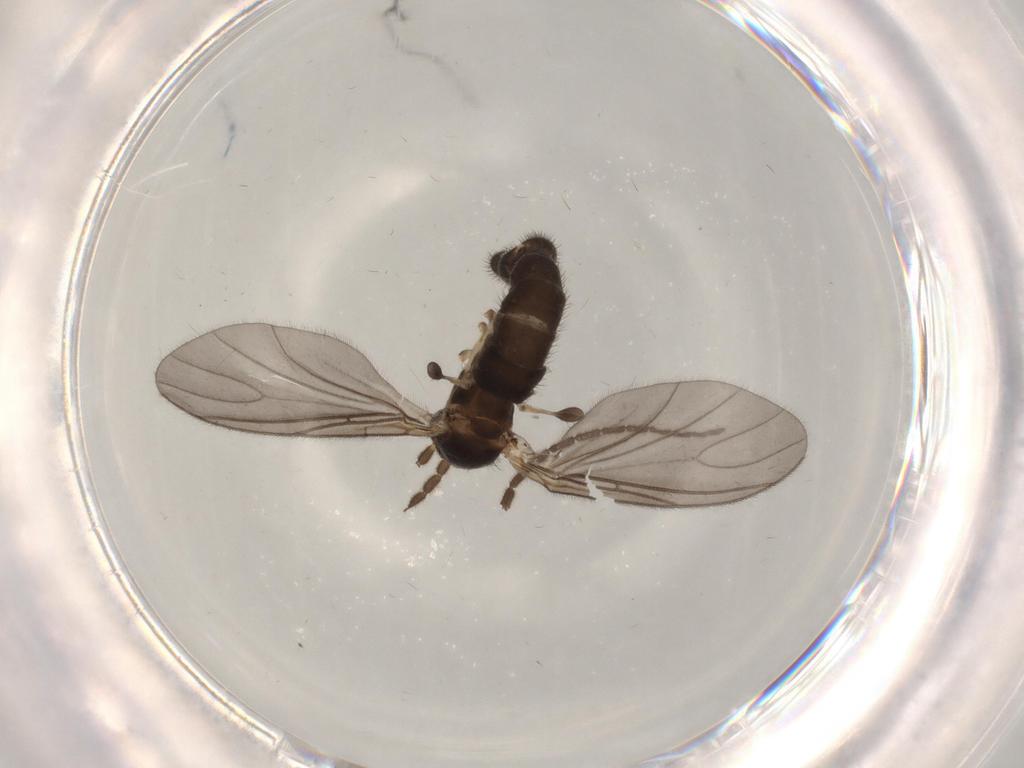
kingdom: Animalia
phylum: Arthropoda
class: Insecta
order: Diptera
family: Sciaridae
